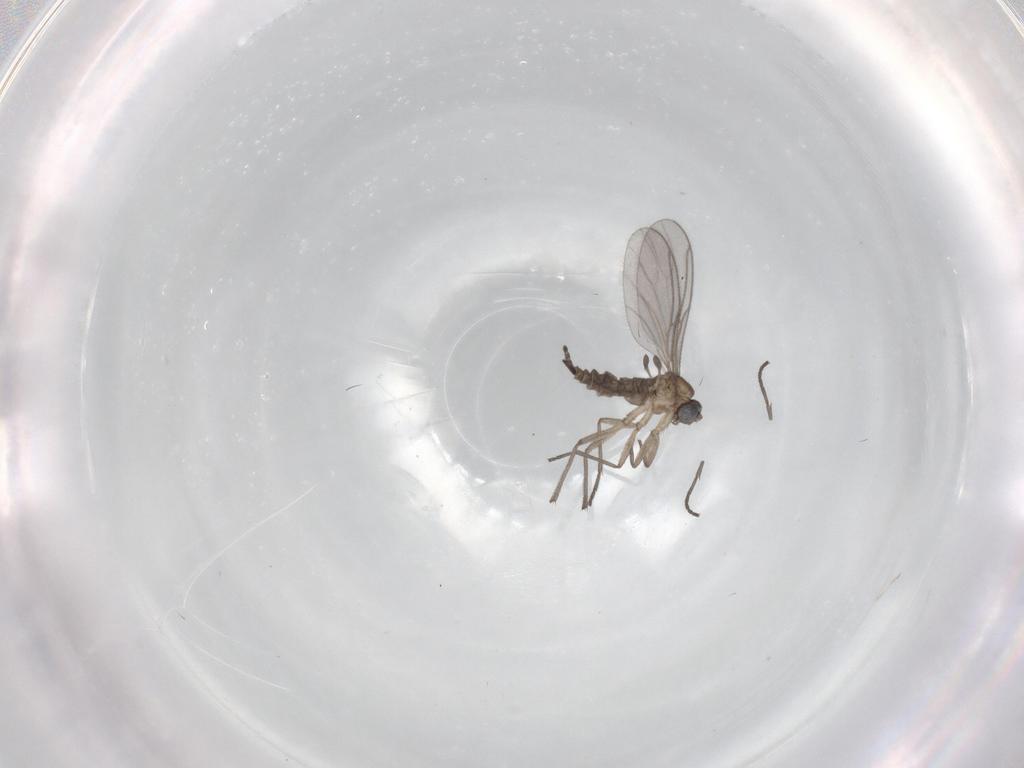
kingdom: Animalia
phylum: Arthropoda
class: Insecta
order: Diptera
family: Sciaridae
